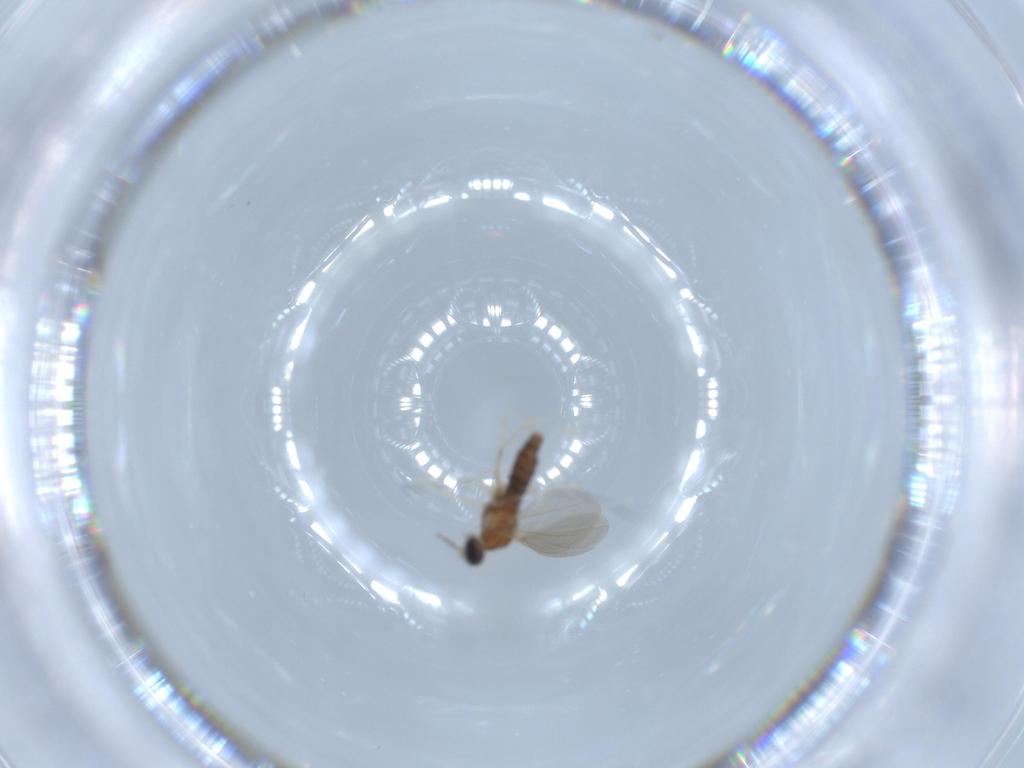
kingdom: Animalia
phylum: Arthropoda
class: Insecta
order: Diptera
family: Cecidomyiidae
